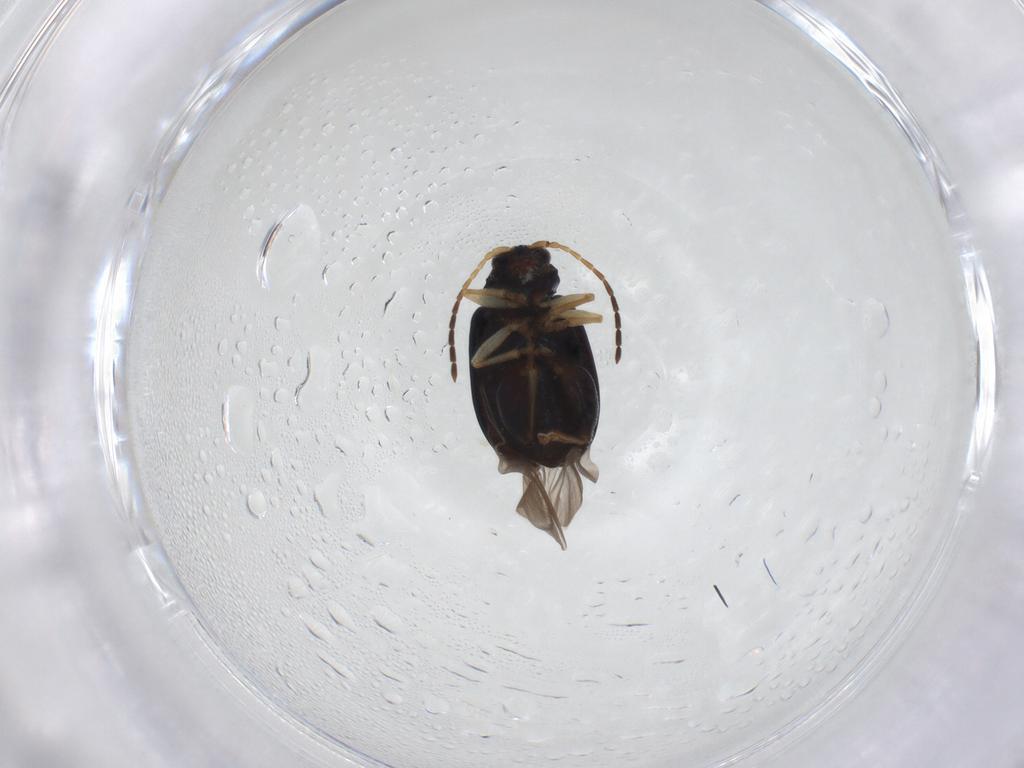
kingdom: Animalia
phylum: Arthropoda
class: Insecta
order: Coleoptera
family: Chrysomelidae
